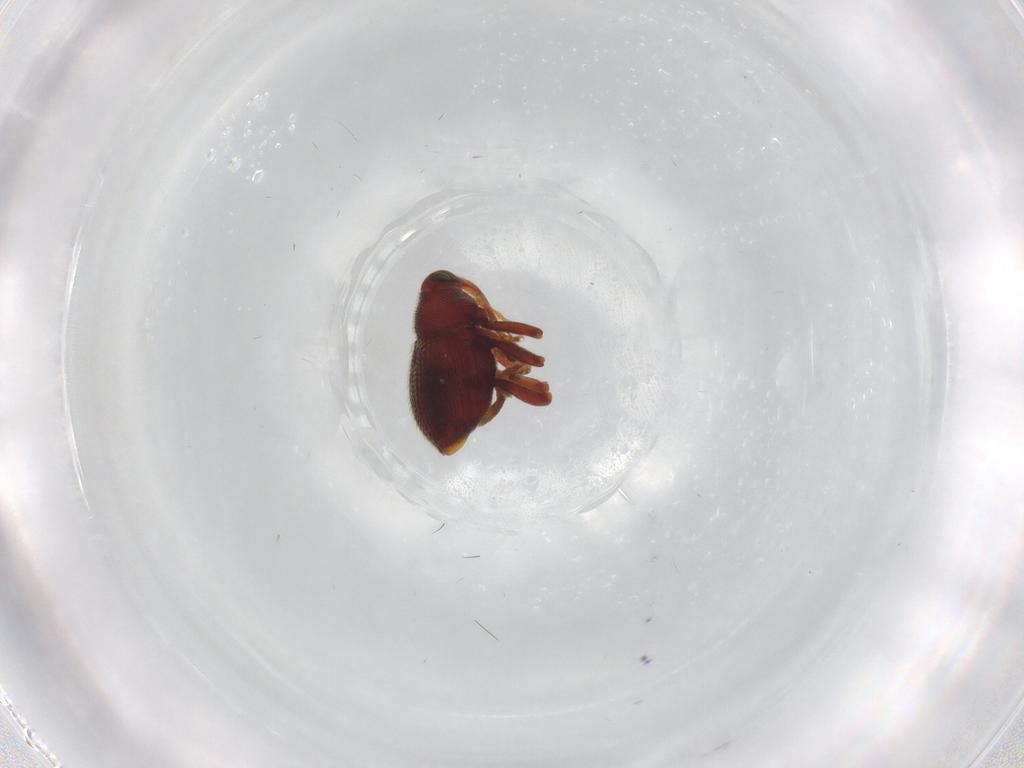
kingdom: Animalia
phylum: Arthropoda
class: Insecta
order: Coleoptera
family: Curculionidae
